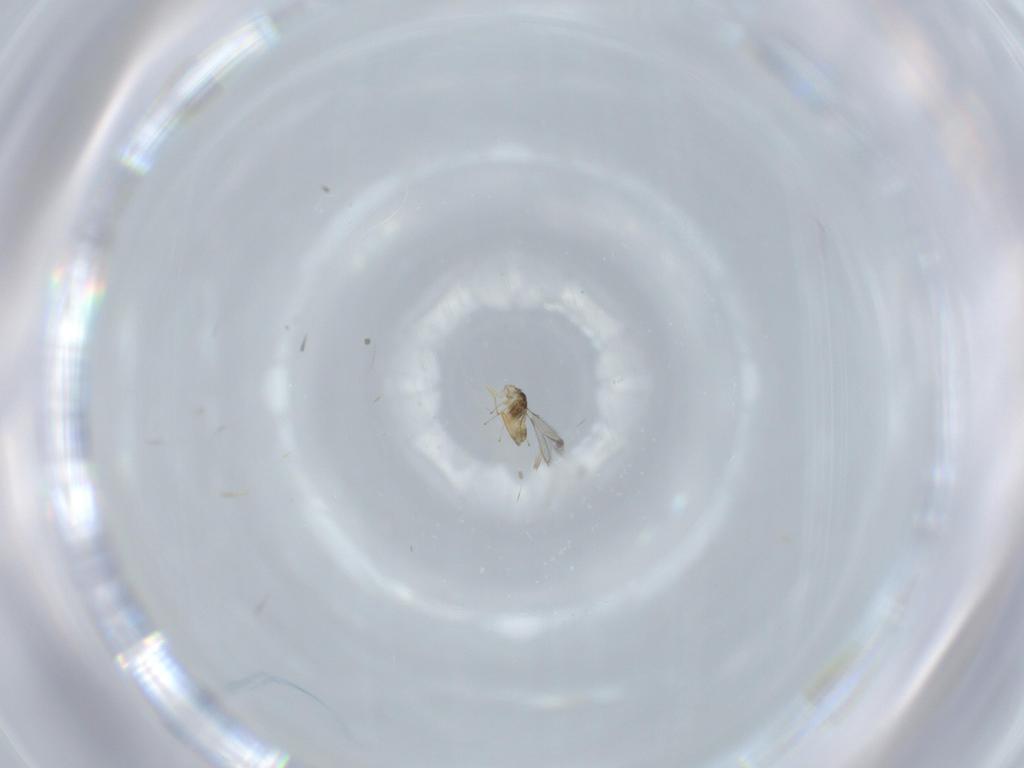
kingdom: Animalia
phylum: Arthropoda
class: Insecta
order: Hymenoptera
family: Mymaridae
